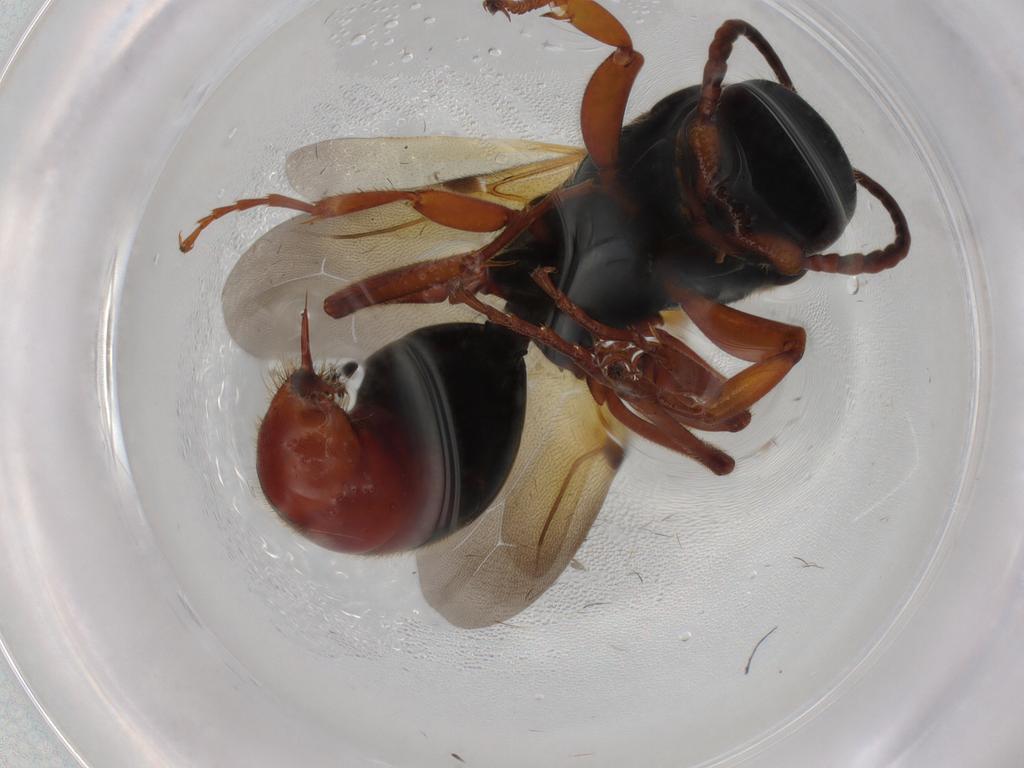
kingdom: Animalia
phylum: Arthropoda
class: Insecta
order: Hymenoptera
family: Bethylidae
